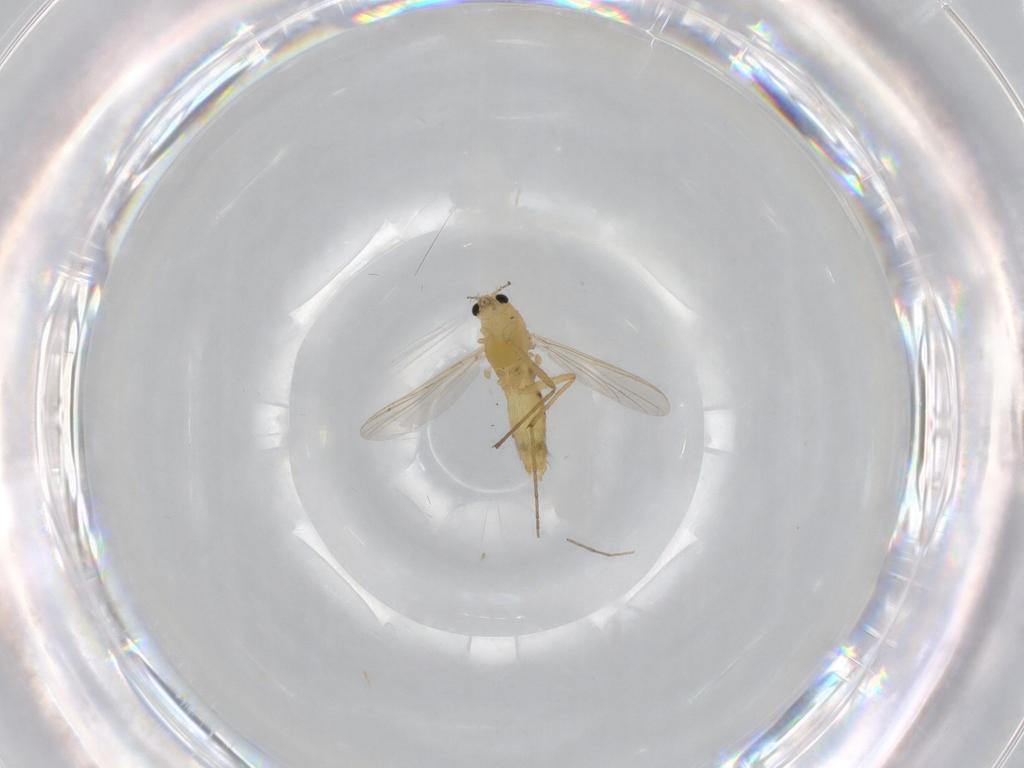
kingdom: Animalia
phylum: Arthropoda
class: Insecta
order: Diptera
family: Chironomidae
